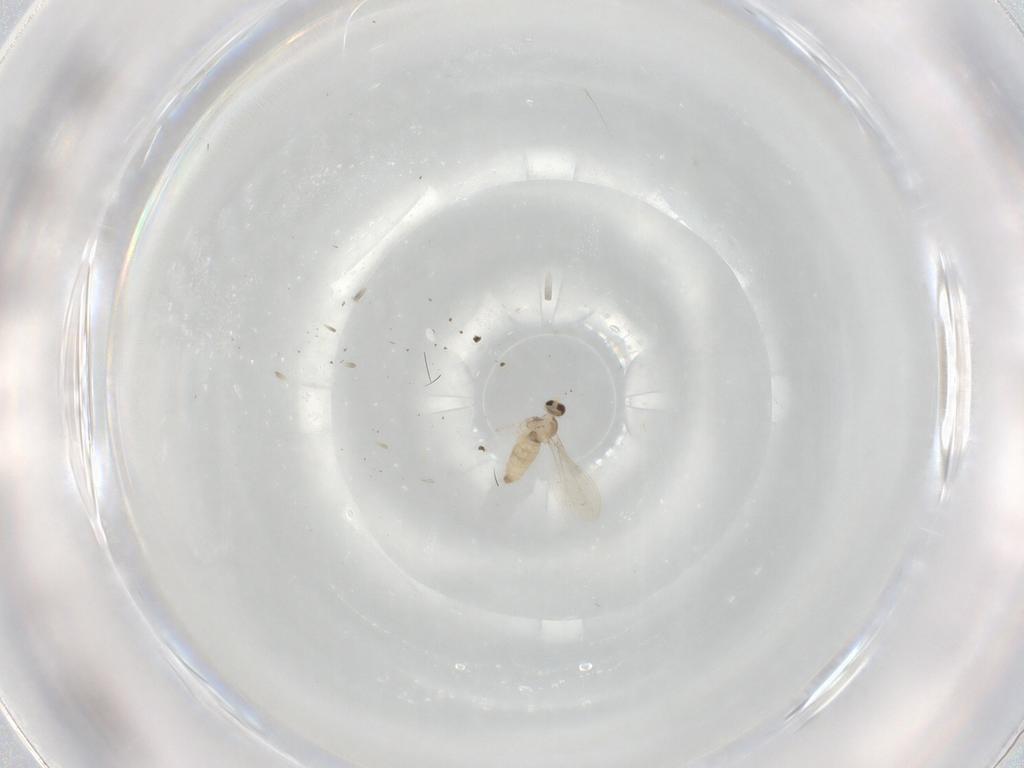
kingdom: Animalia
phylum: Arthropoda
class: Insecta
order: Diptera
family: Cecidomyiidae
